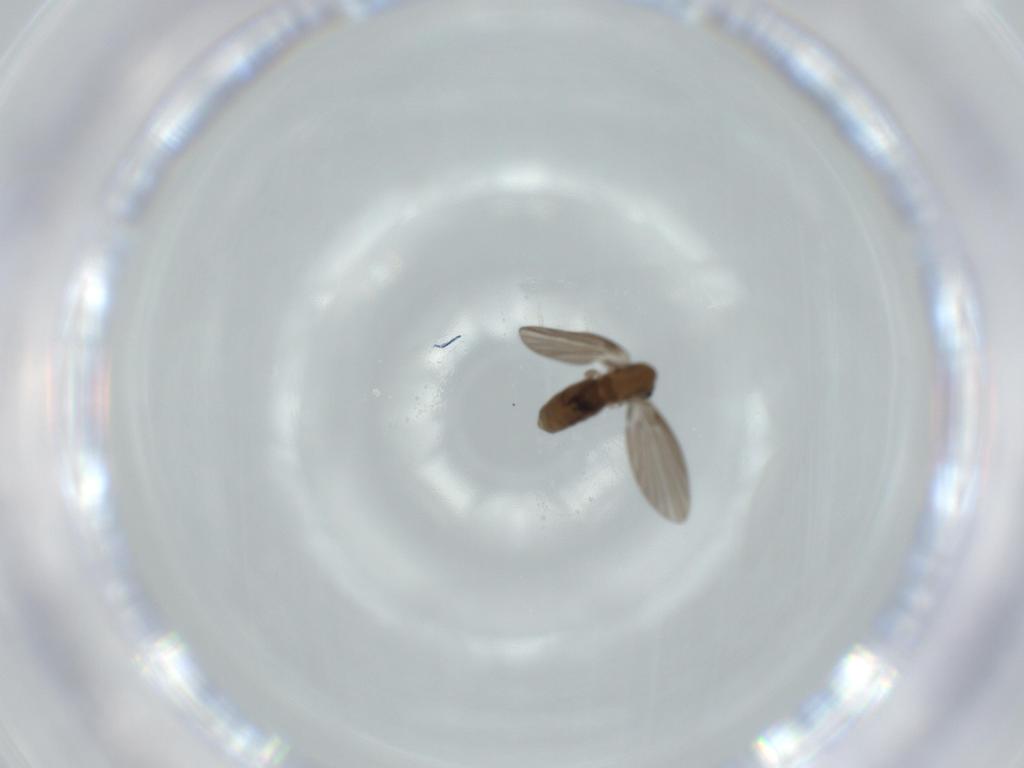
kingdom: Animalia
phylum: Arthropoda
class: Insecta
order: Diptera
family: Psychodidae
